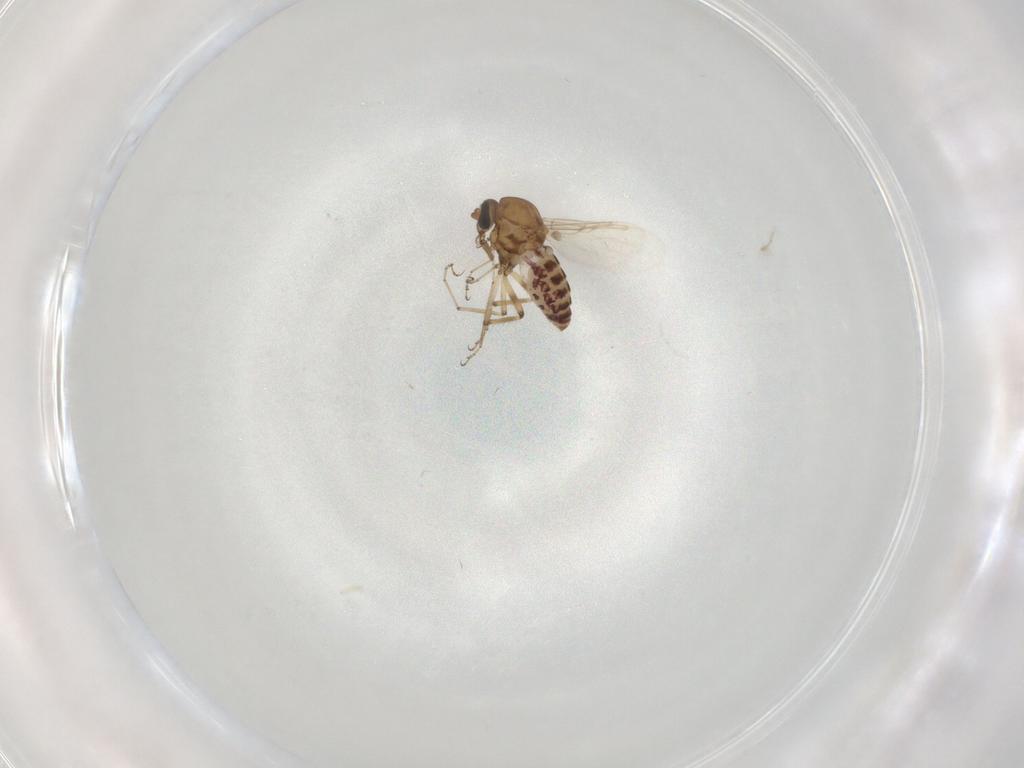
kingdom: Animalia
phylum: Arthropoda
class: Insecta
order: Diptera
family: Ceratopogonidae
